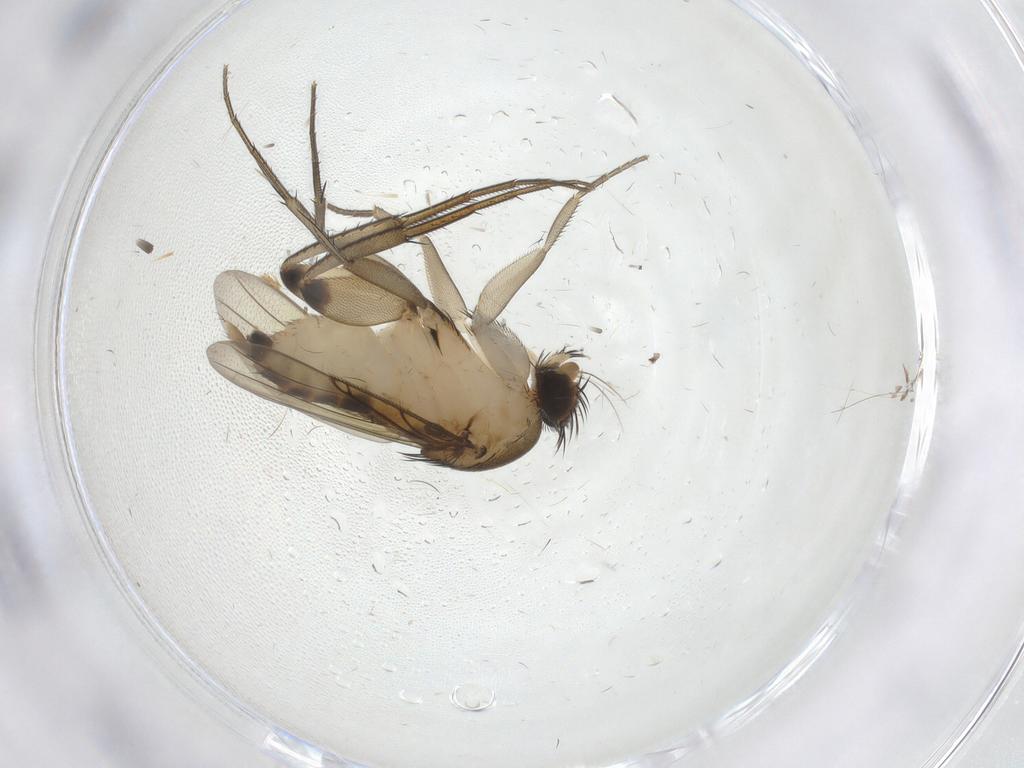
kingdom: Animalia
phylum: Arthropoda
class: Insecta
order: Diptera
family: Phoridae
